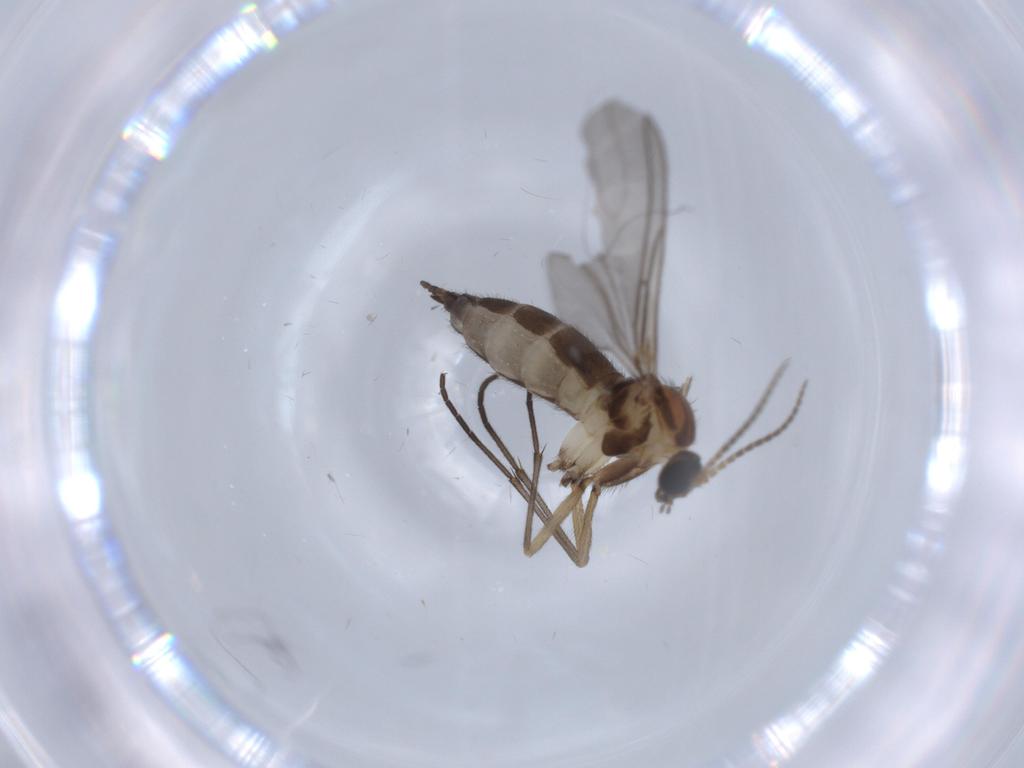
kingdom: Animalia
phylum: Arthropoda
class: Insecta
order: Diptera
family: Sciaridae
